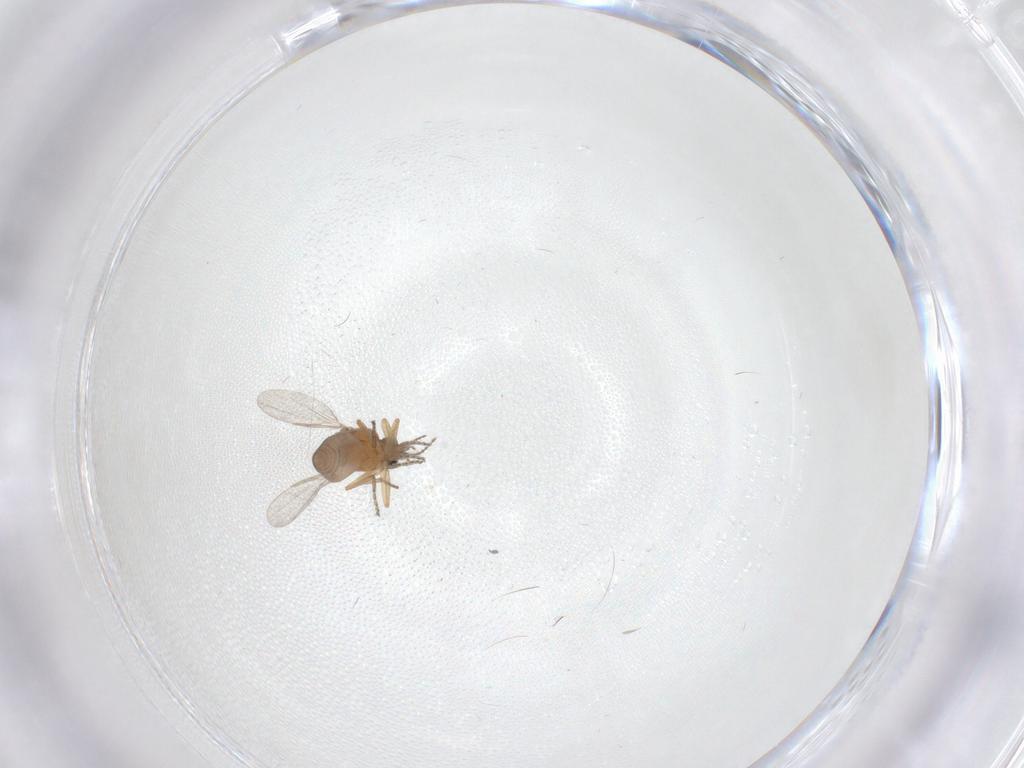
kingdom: Animalia
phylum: Arthropoda
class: Insecta
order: Diptera
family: Ceratopogonidae
